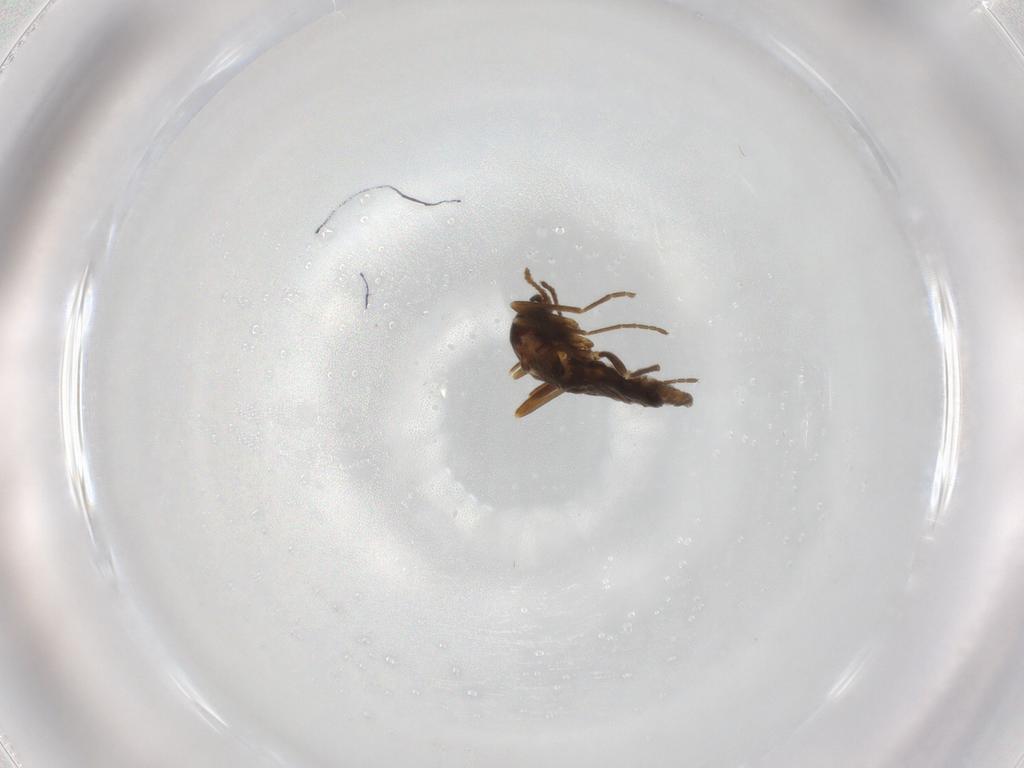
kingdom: Animalia
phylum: Arthropoda
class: Insecta
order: Diptera
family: Cecidomyiidae
